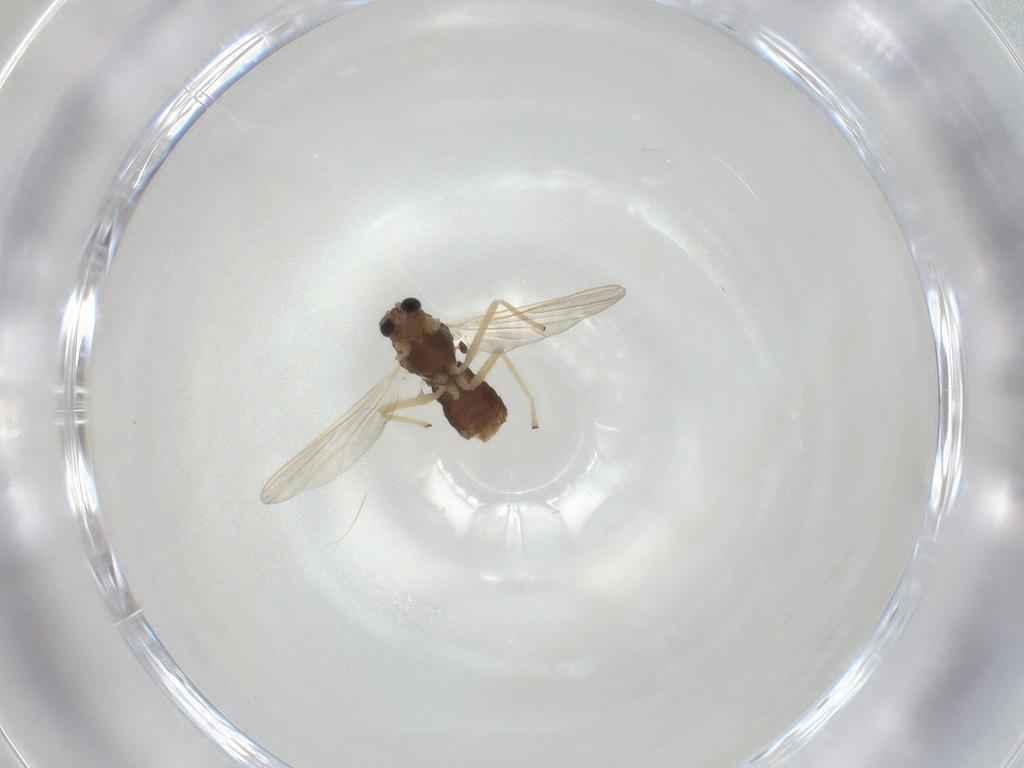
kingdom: Animalia
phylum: Arthropoda
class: Insecta
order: Diptera
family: Chironomidae
